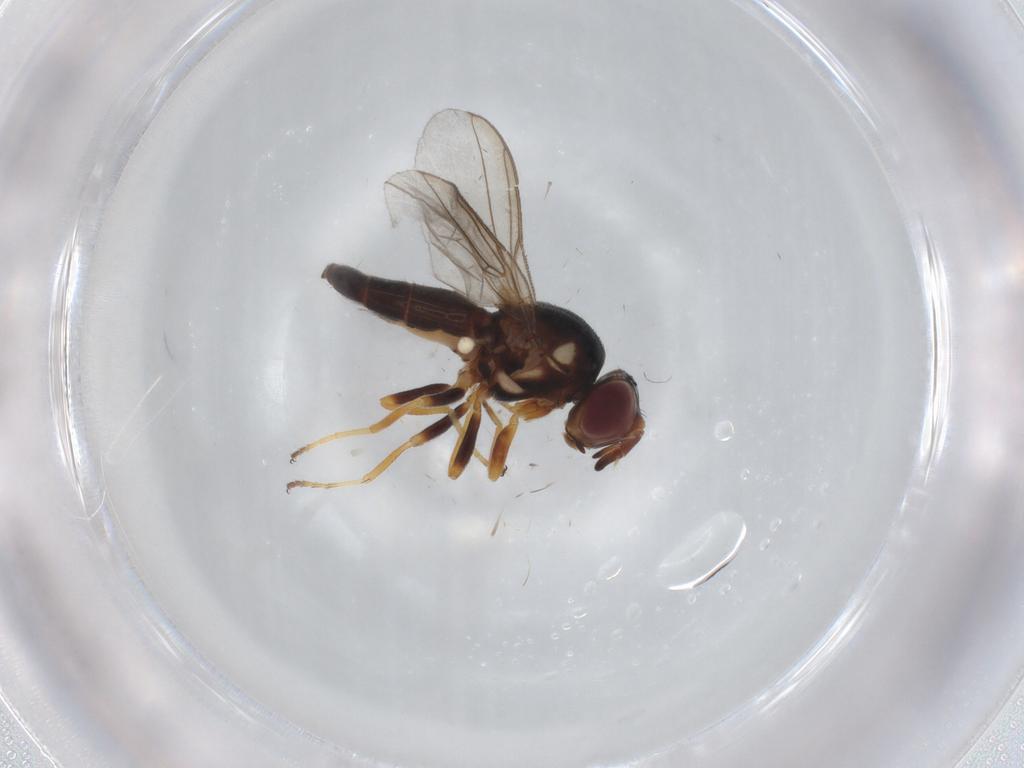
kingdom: Animalia
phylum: Arthropoda
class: Insecta
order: Diptera
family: Chloropidae
